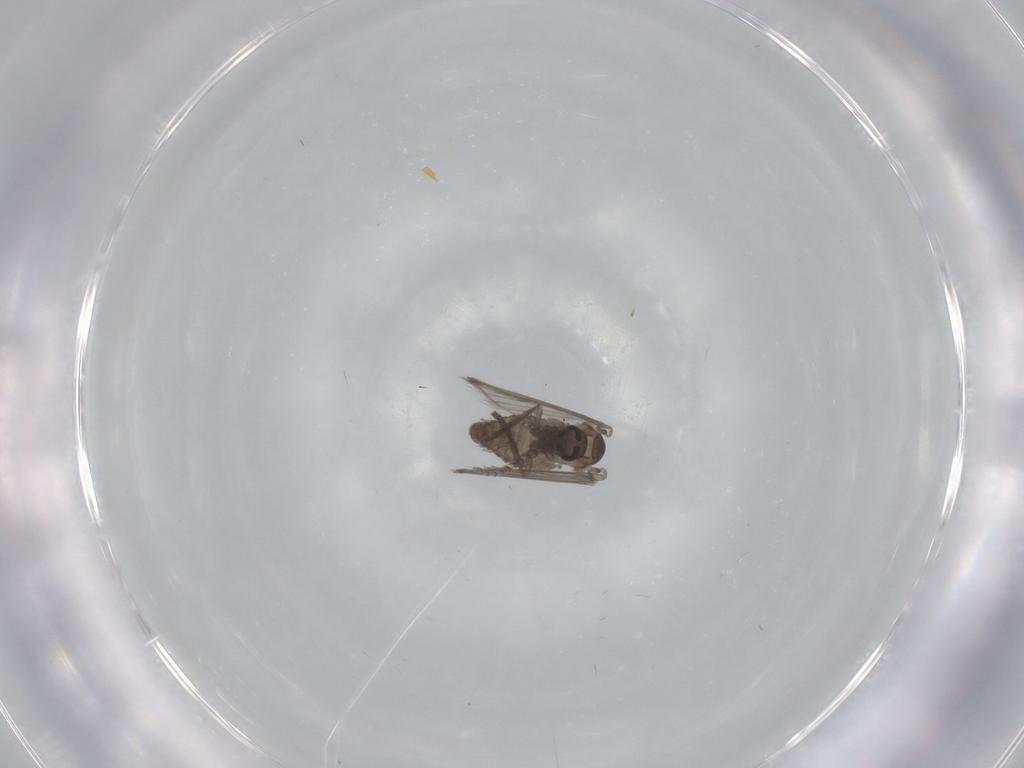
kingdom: Animalia
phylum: Arthropoda
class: Insecta
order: Diptera
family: Psychodidae
